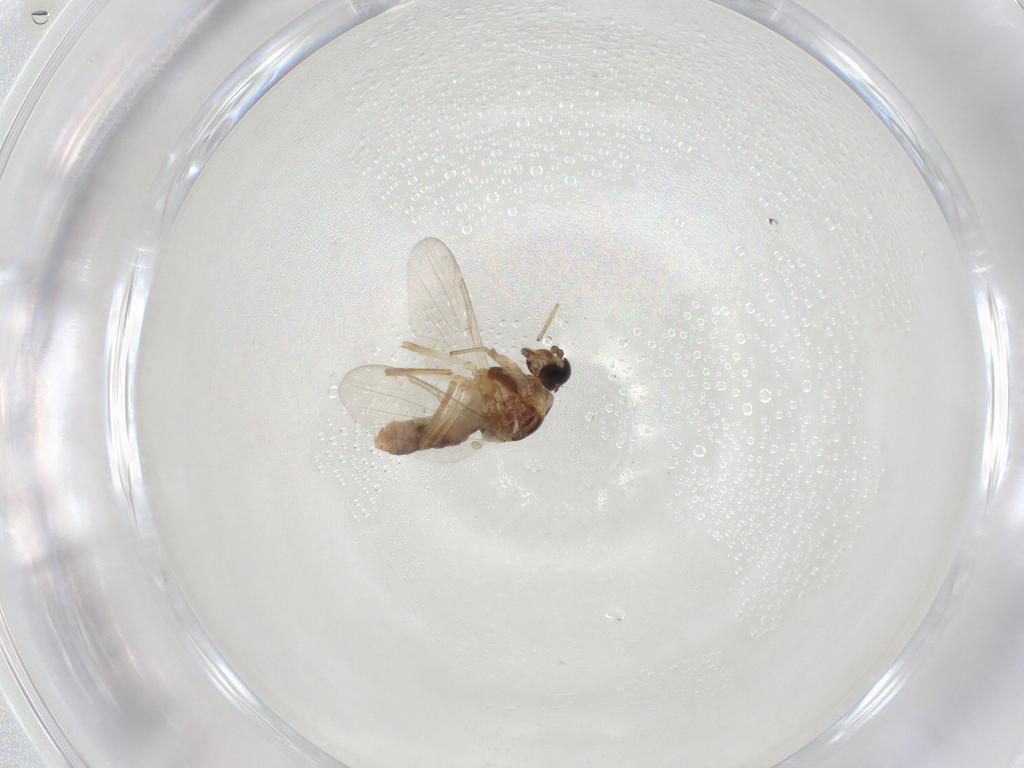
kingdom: Animalia
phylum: Arthropoda
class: Insecta
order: Diptera
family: Ceratopogonidae
